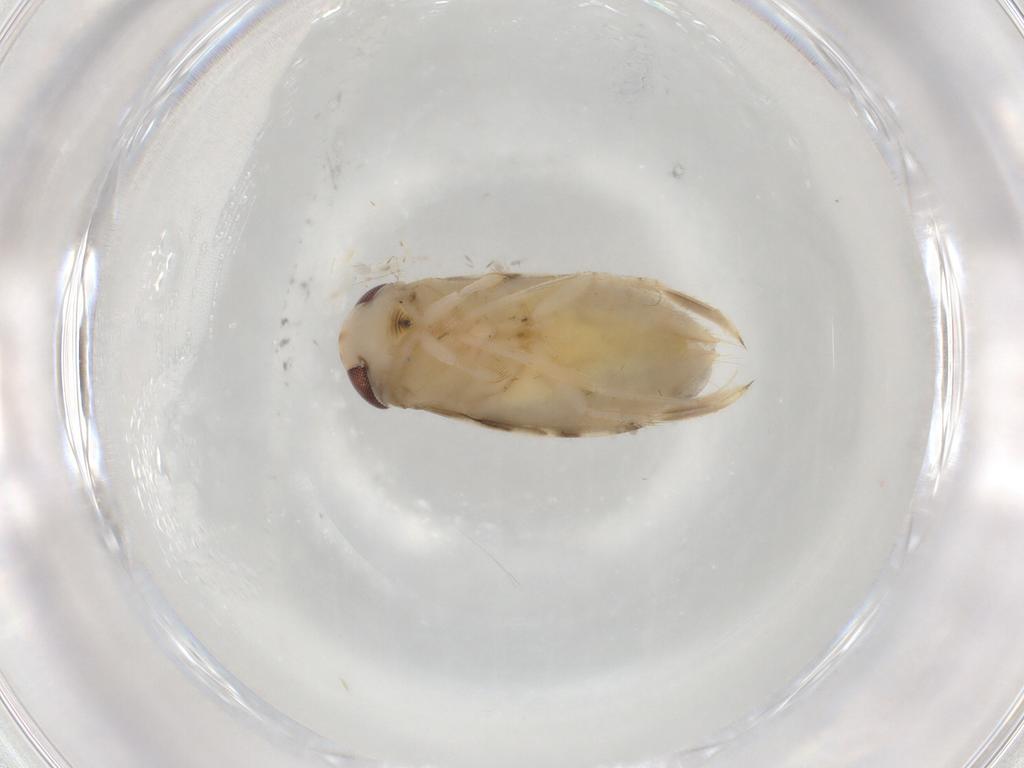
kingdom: Animalia
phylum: Arthropoda
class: Insecta
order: Hemiptera
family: Corixidae
